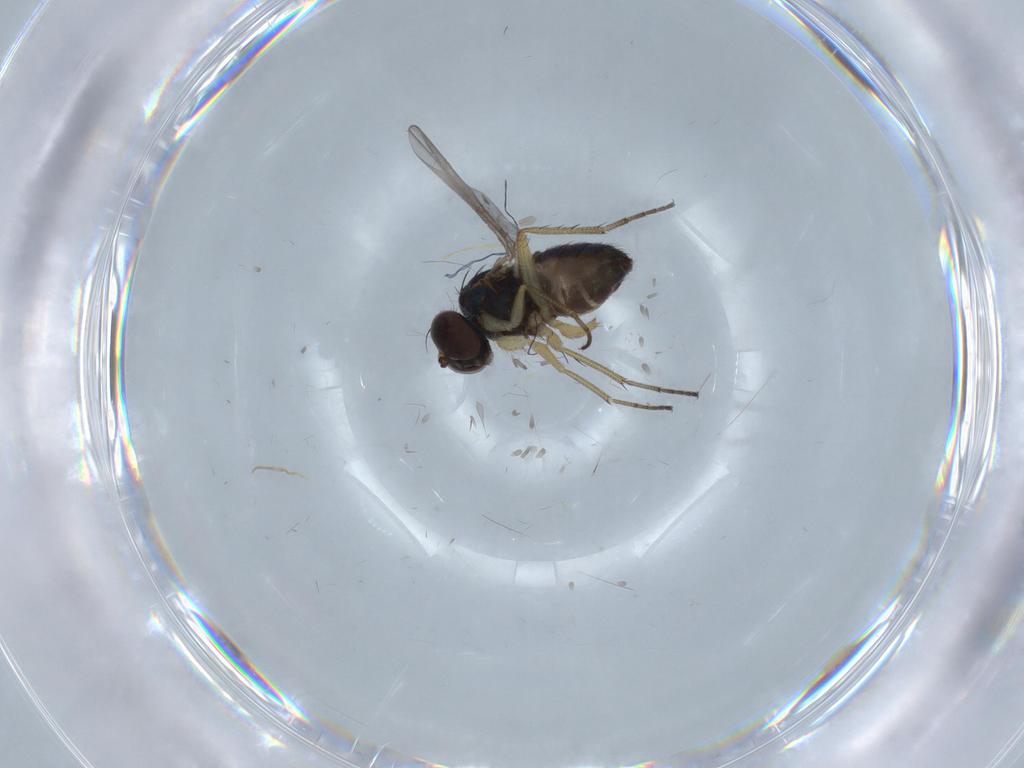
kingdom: Animalia
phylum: Arthropoda
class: Insecta
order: Diptera
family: Dolichopodidae
